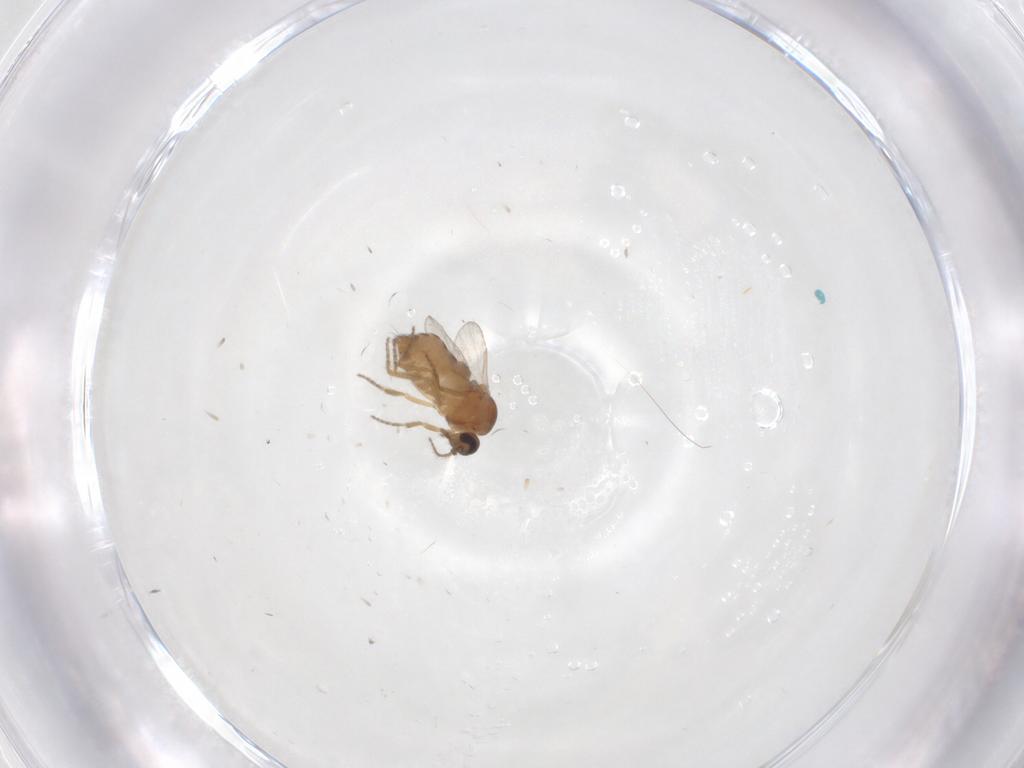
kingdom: Animalia
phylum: Arthropoda
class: Insecta
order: Diptera
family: Ceratopogonidae
